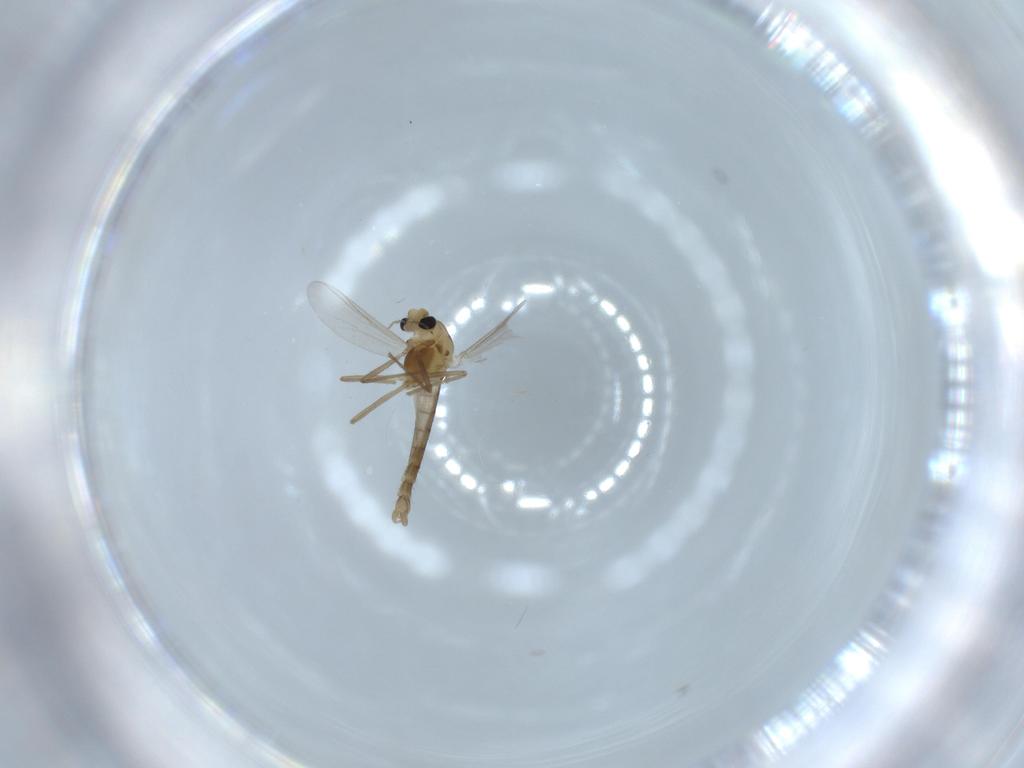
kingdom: Animalia
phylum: Arthropoda
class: Insecta
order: Diptera
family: Chironomidae
